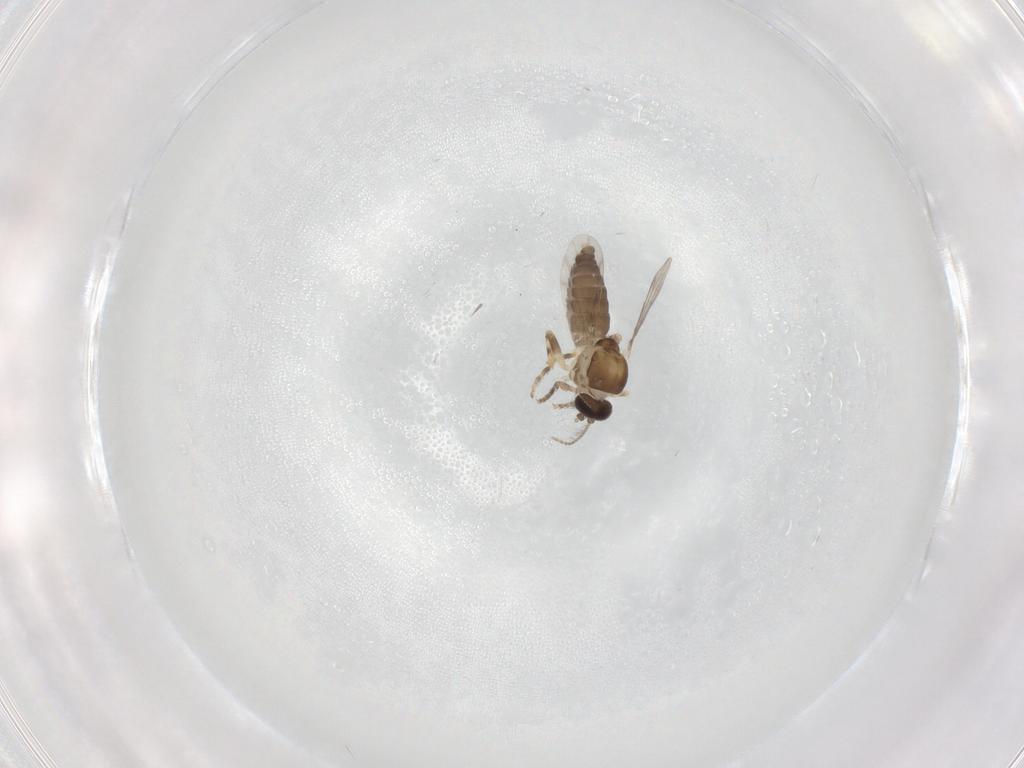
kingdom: Animalia
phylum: Arthropoda
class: Insecta
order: Diptera
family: Ceratopogonidae
